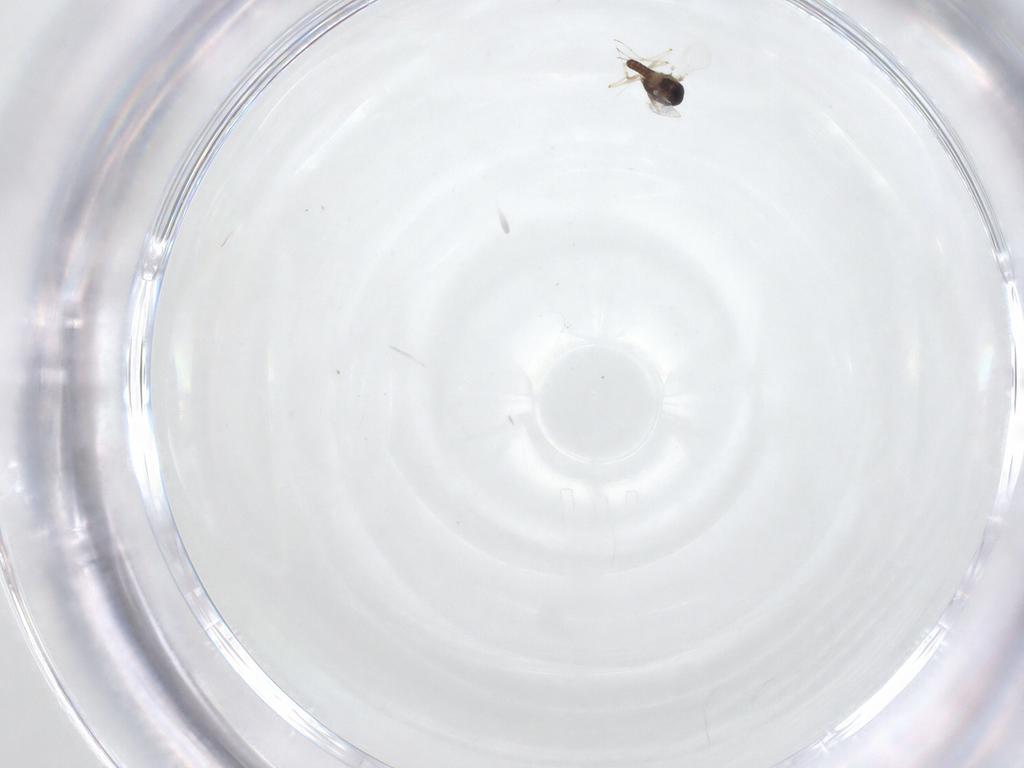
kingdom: Animalia
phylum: Arthropoda
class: Insecta
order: Diptera
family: Chironomidae
